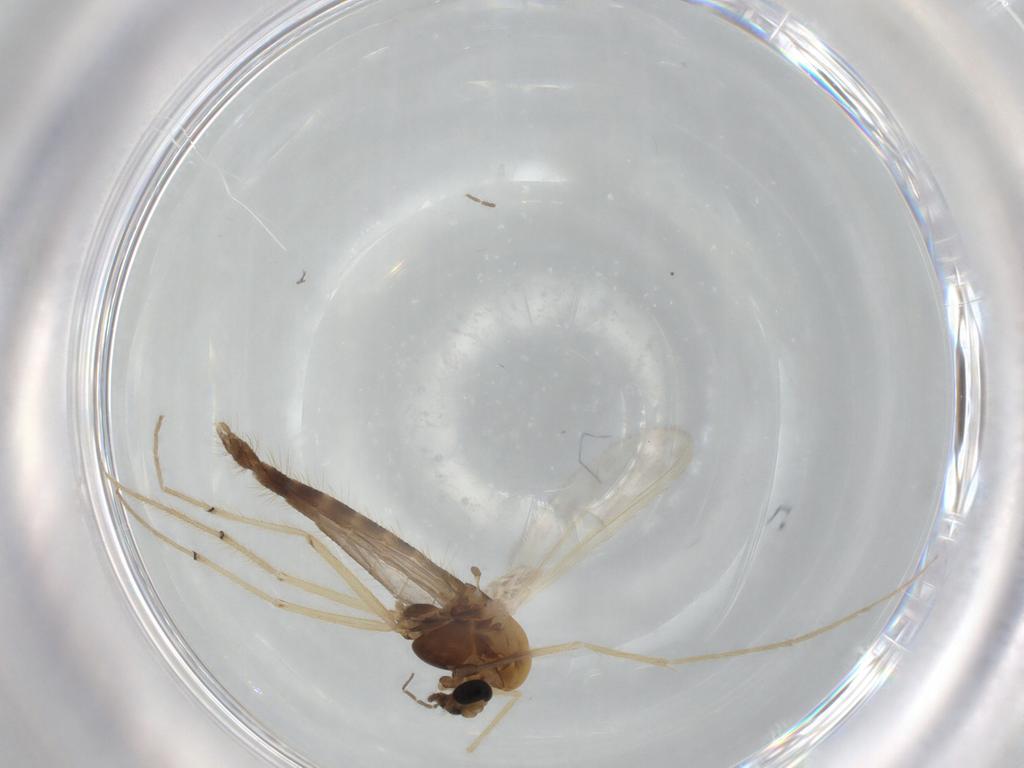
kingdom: Animalia
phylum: Arthropoda
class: Insecta
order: Diptera
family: Chironomidae
